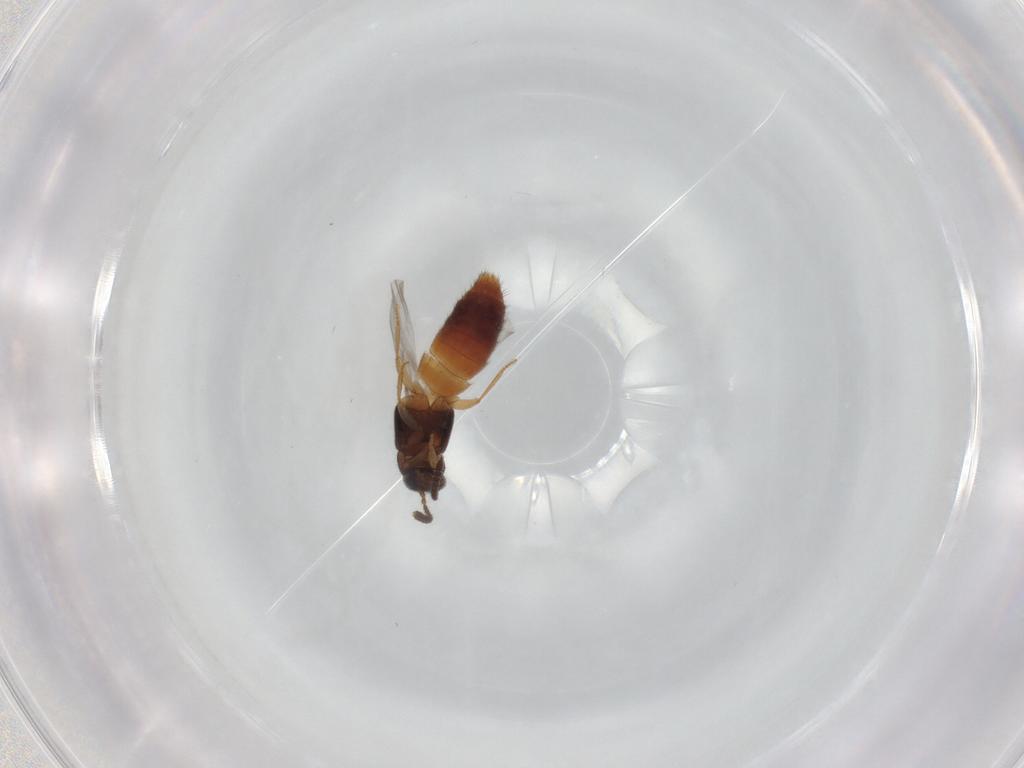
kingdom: Animalia
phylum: Arthropoda
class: Insecta
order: Coleoptera
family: Staphylinidae
